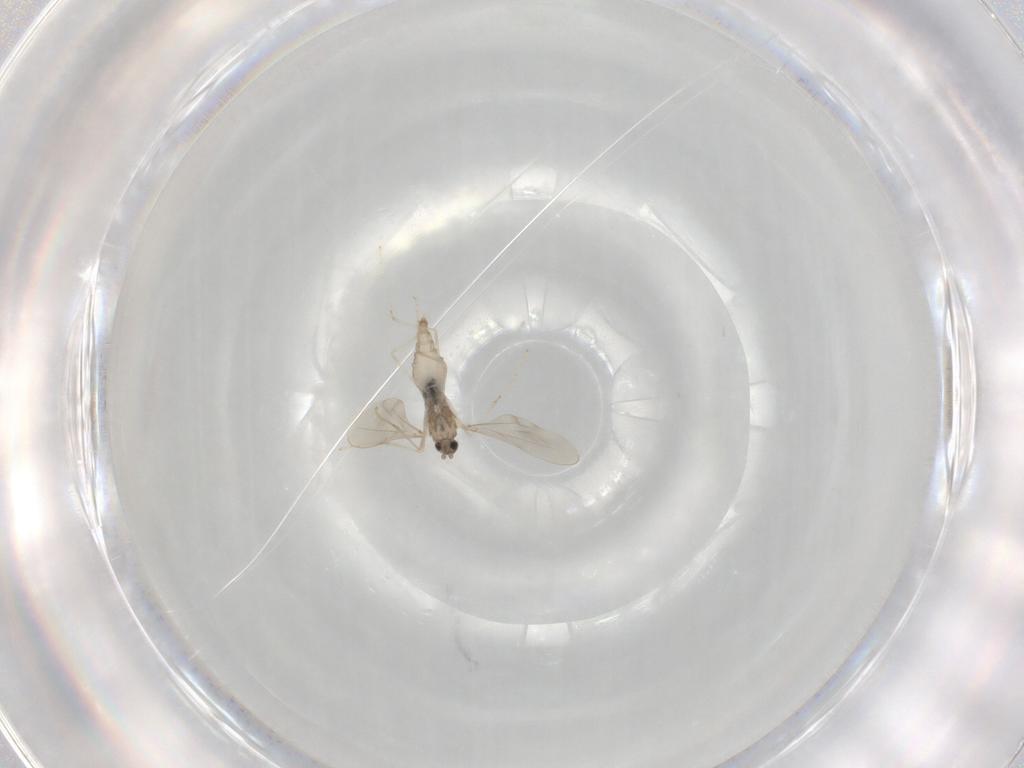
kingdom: Animalia
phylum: Arthropoda
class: Insecta
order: Diptera
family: Cecidomyiidae
